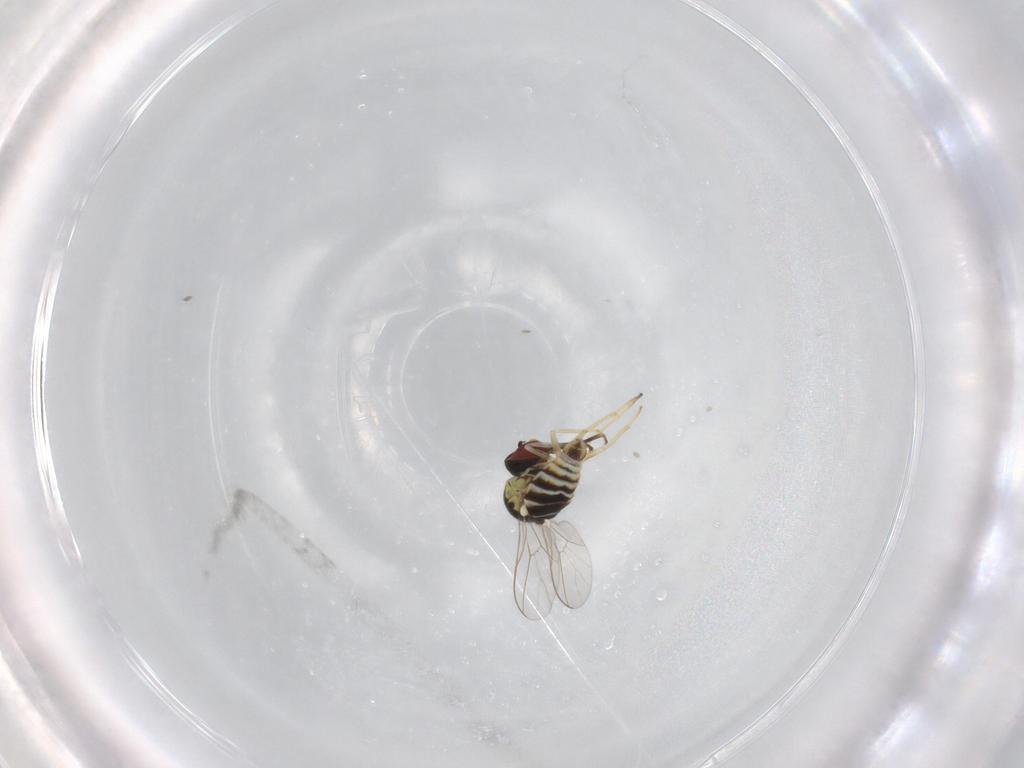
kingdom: Animalia
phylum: Arthropoda
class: Insecta
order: Diptera
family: Ephydridae
